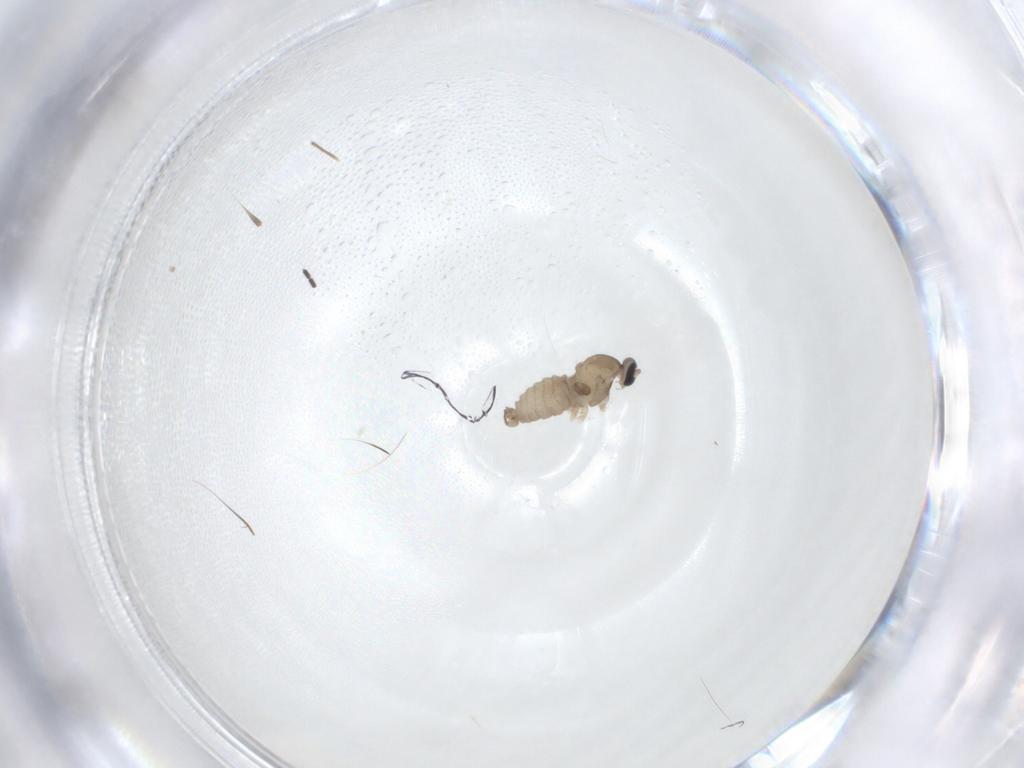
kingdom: Animalia
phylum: Arthropoda
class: Insecta
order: Diptera
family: Cecidomyiidae
